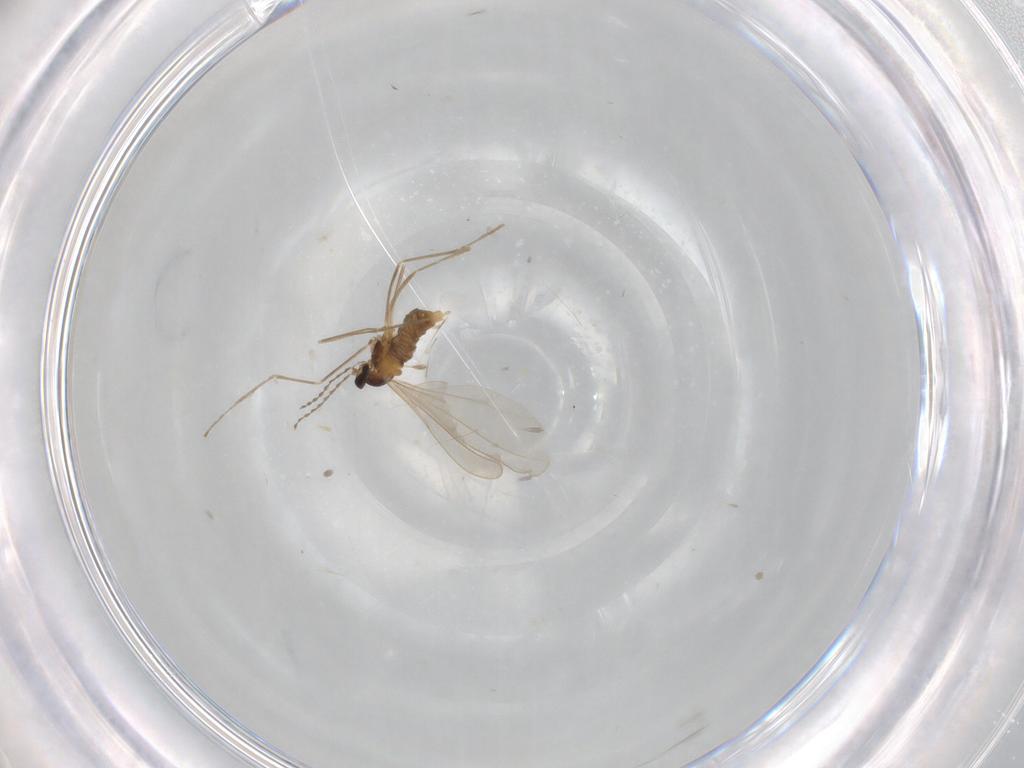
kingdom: Animalia
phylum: Arthropoda
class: Insecta
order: Diptera
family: Cecidomyiidae
